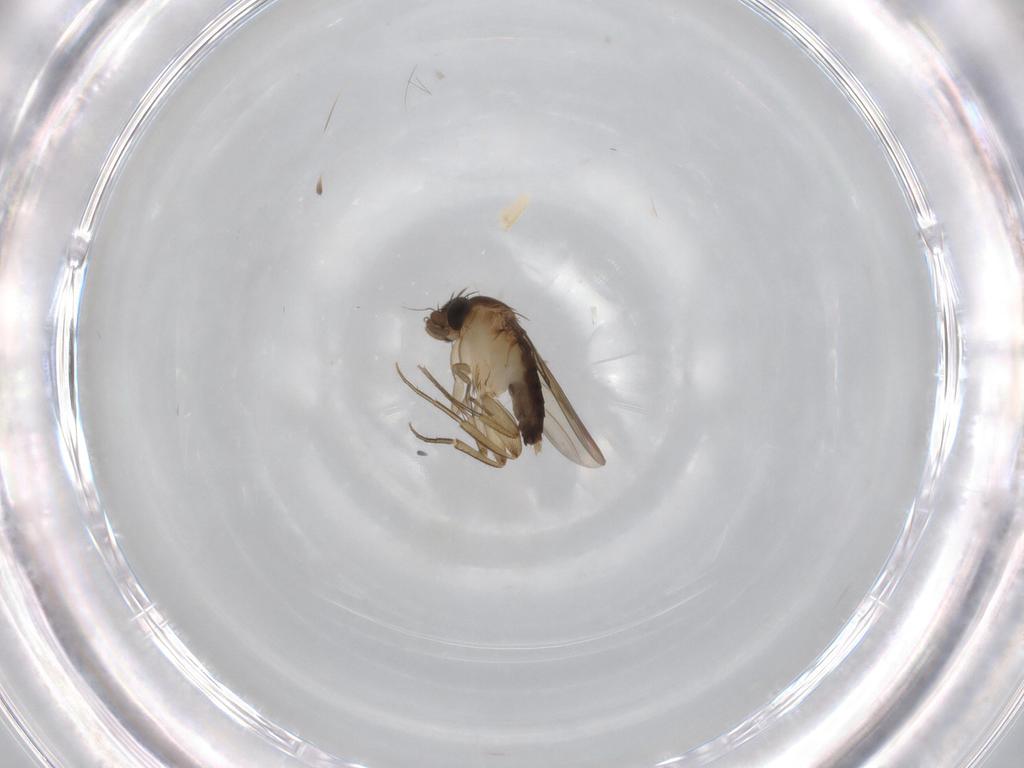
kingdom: Animalia
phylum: Arthropoda
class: Insecta
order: Diptera
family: Phoridae
